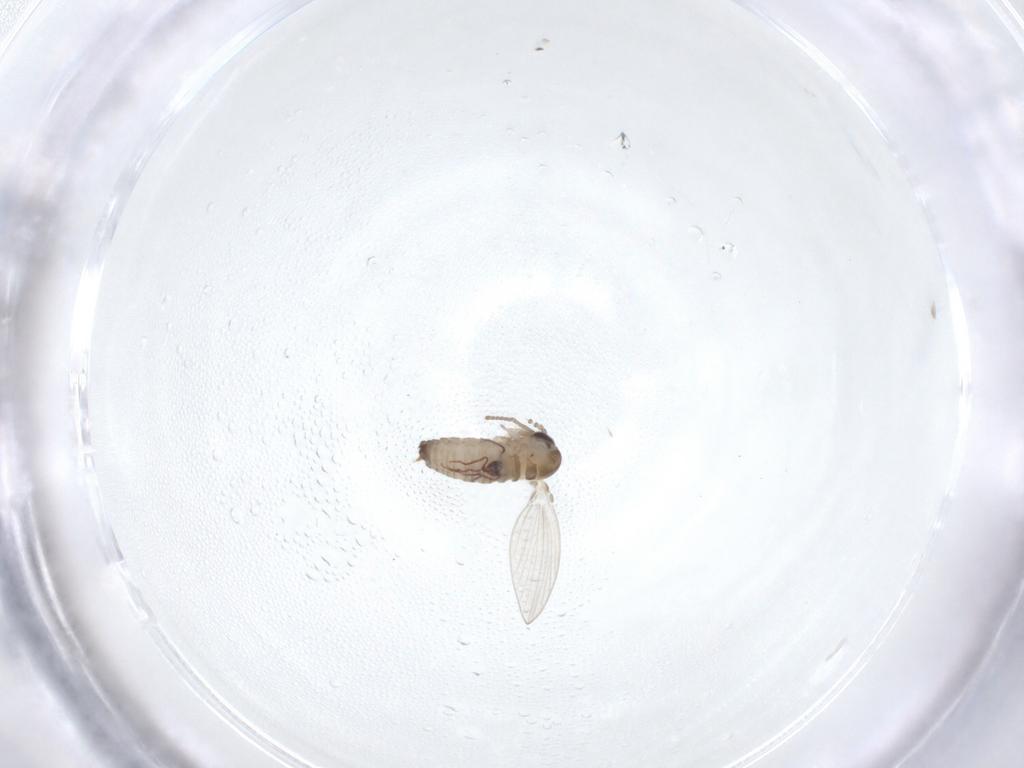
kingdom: Animalia
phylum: Arthropoda
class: Insecta
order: Diptera
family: Psychodidae
